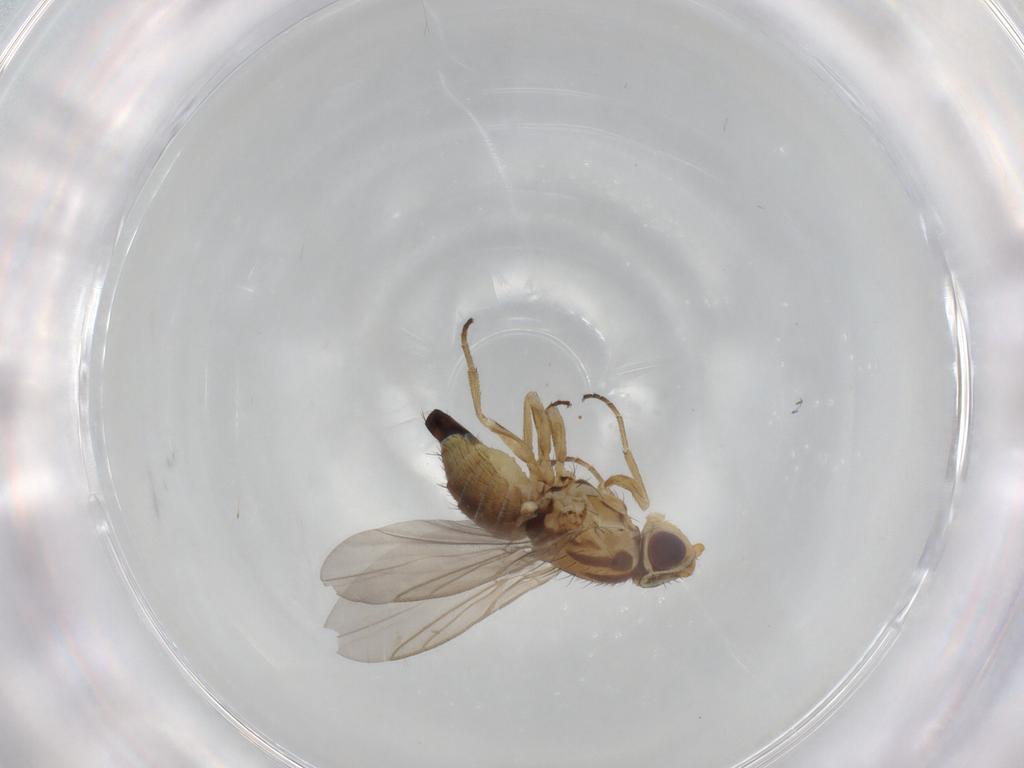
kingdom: Animalia
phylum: Arthropoda
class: Insecta
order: Diptera
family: Agromyzidae
